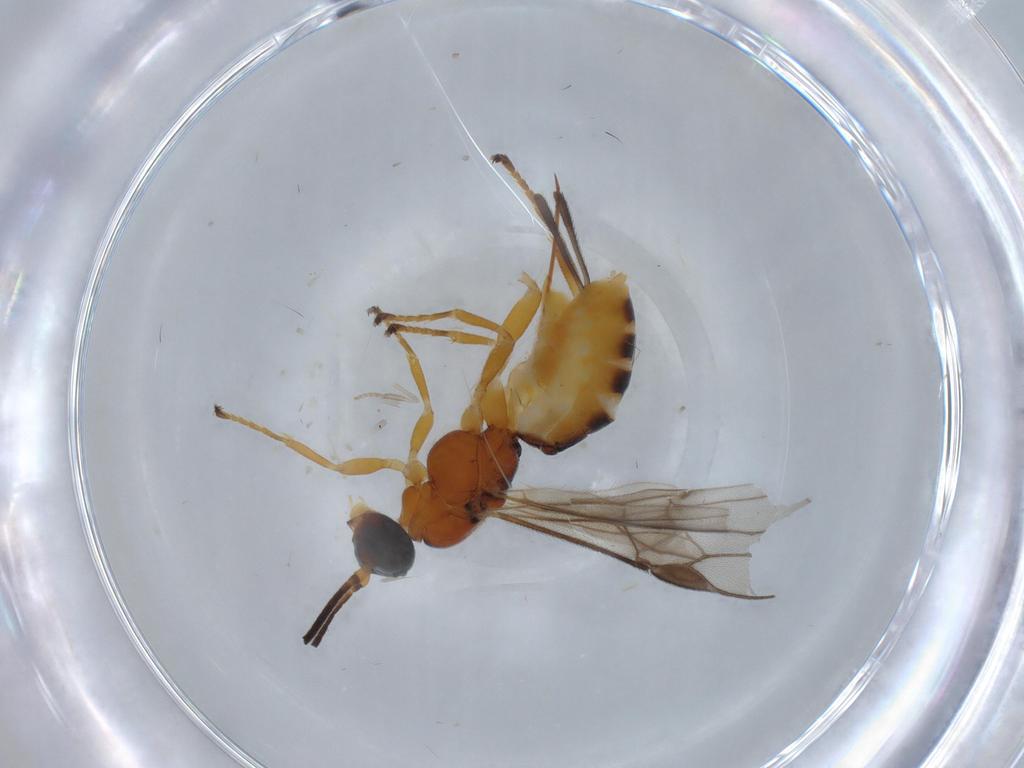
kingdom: Animalia
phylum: Arthropoda
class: Insecta
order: Hymenoptera
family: Braconidae
